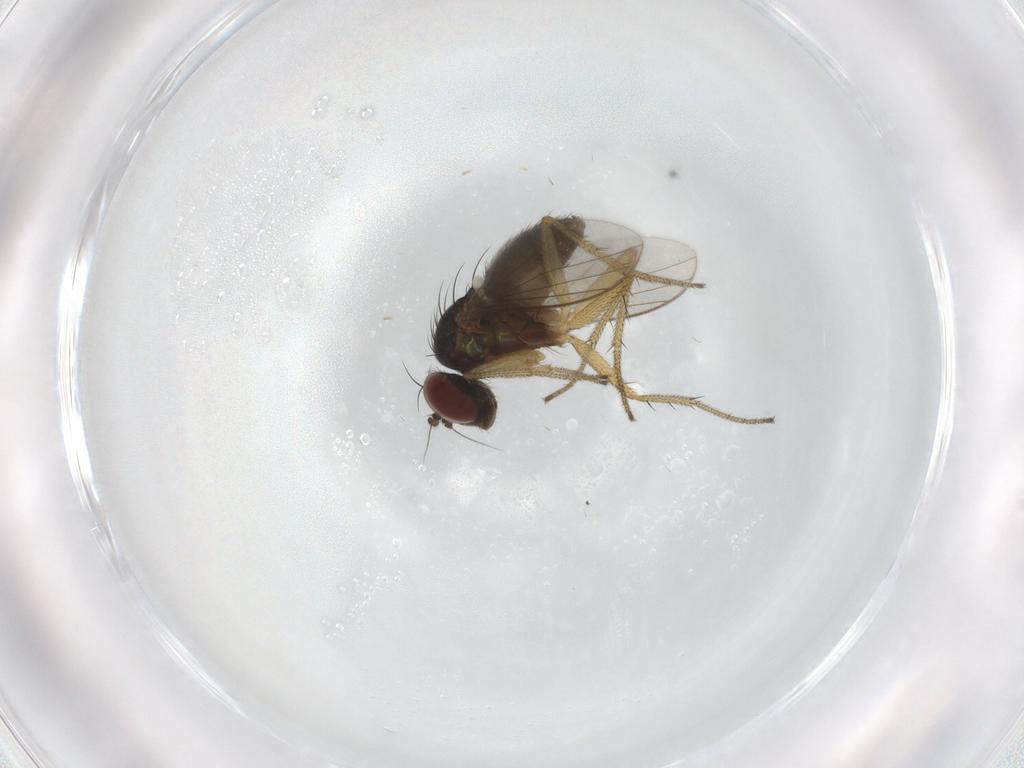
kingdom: Animalia
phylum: Arthropoda
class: Insecta
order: Diptera
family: Dolichopodidae
